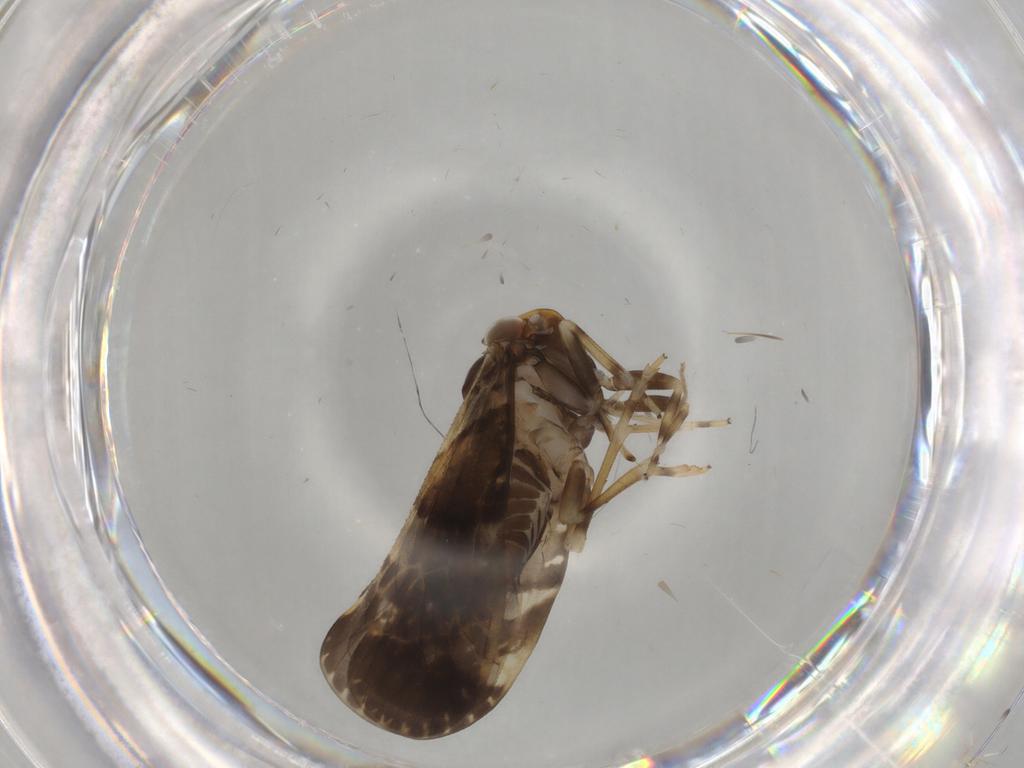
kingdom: Animalia
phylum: Arthropoda
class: Insecta
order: Hemiptera
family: Cixiidae
